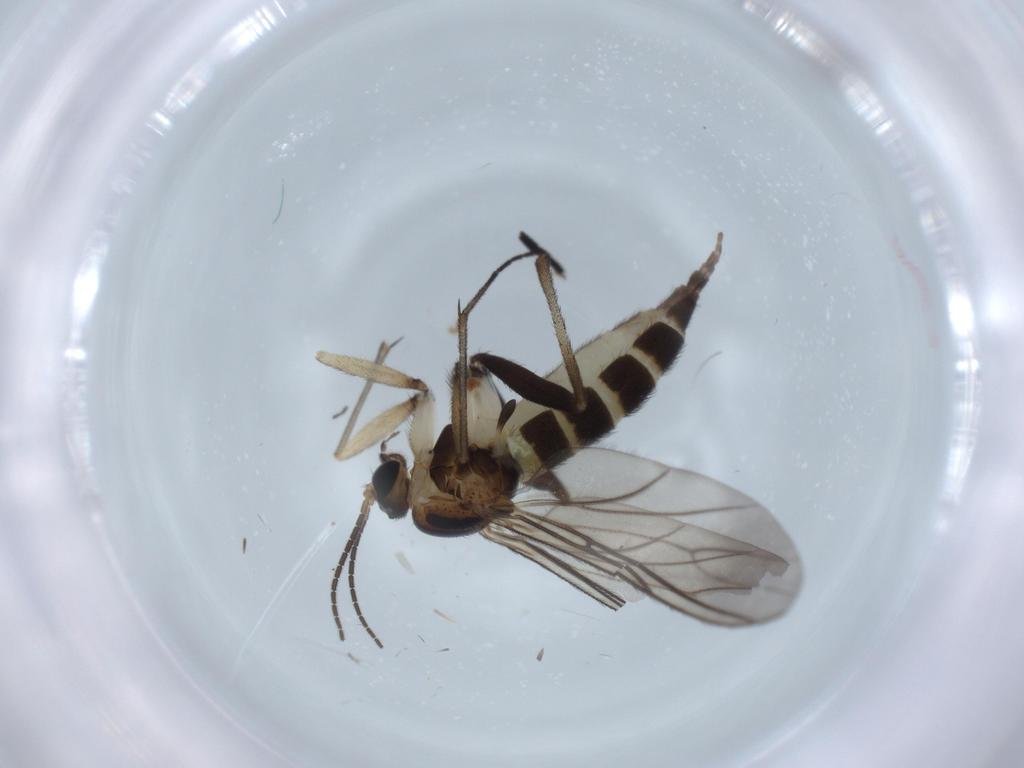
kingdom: Animalia
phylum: Arthropoda
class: Insecta
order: Diptera
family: Sciaridae
